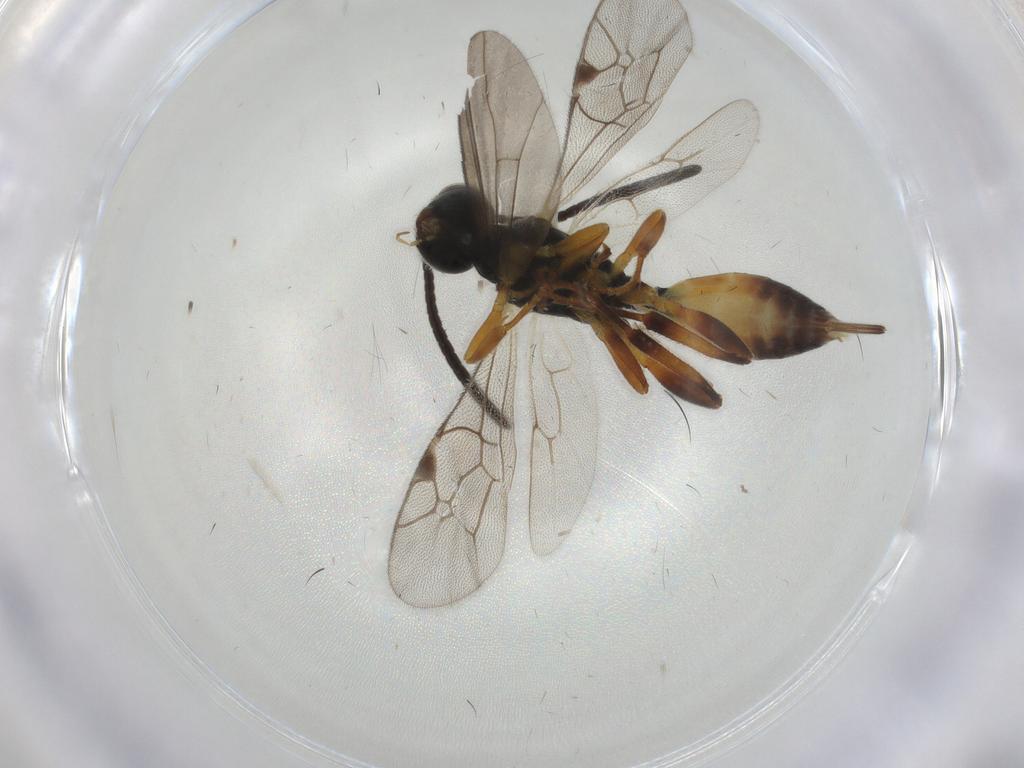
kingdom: Animalia
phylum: Arthropoda
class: Insecta
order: Hymenoptera
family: Ichneumonidae
